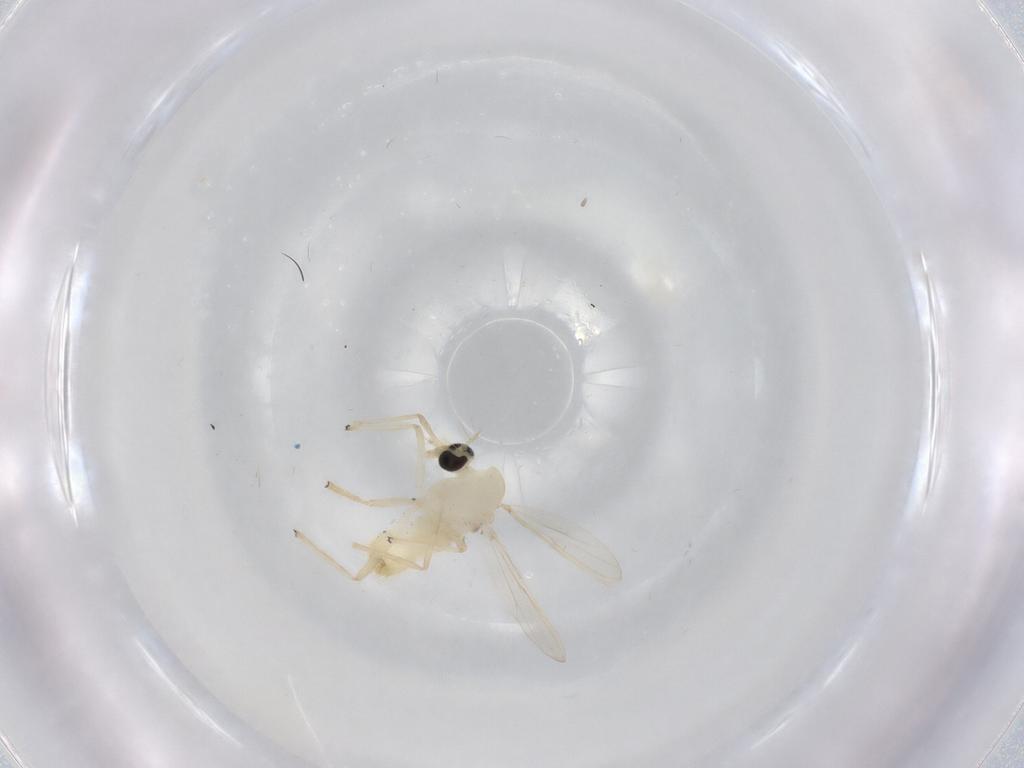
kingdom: Animalia
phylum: Arthropoda
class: Insecta
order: Diptera
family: Chironomidae
